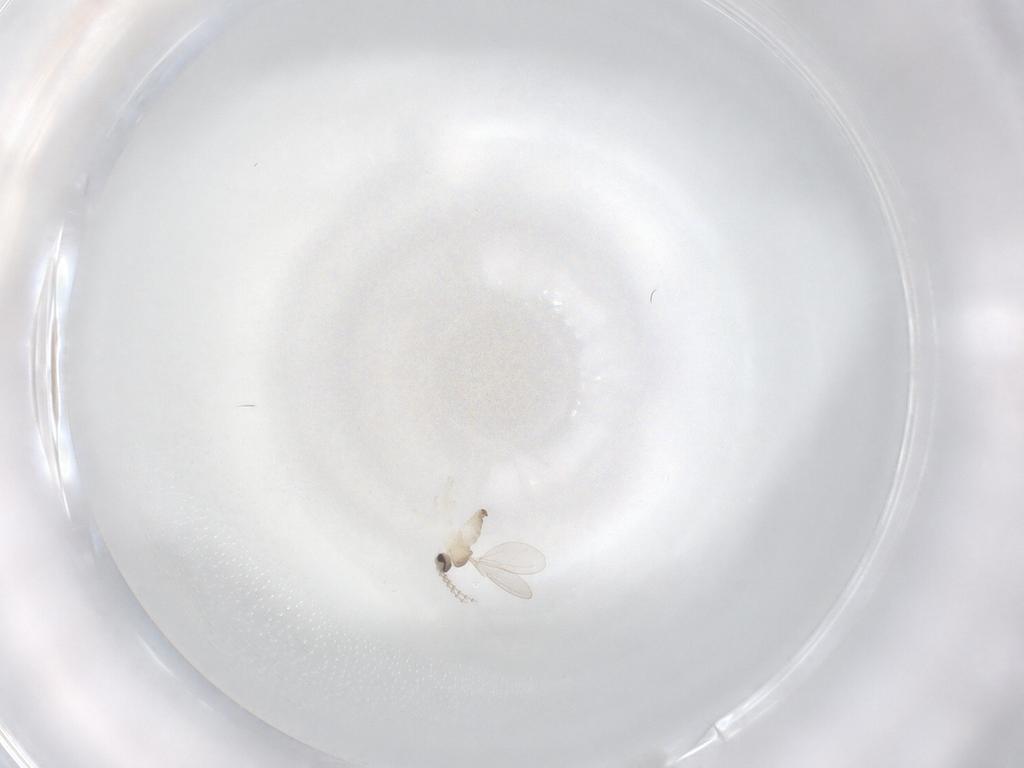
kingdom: Animalia
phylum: Arthropoda
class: Insecta
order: Diptera
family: Cecidomyiidae
